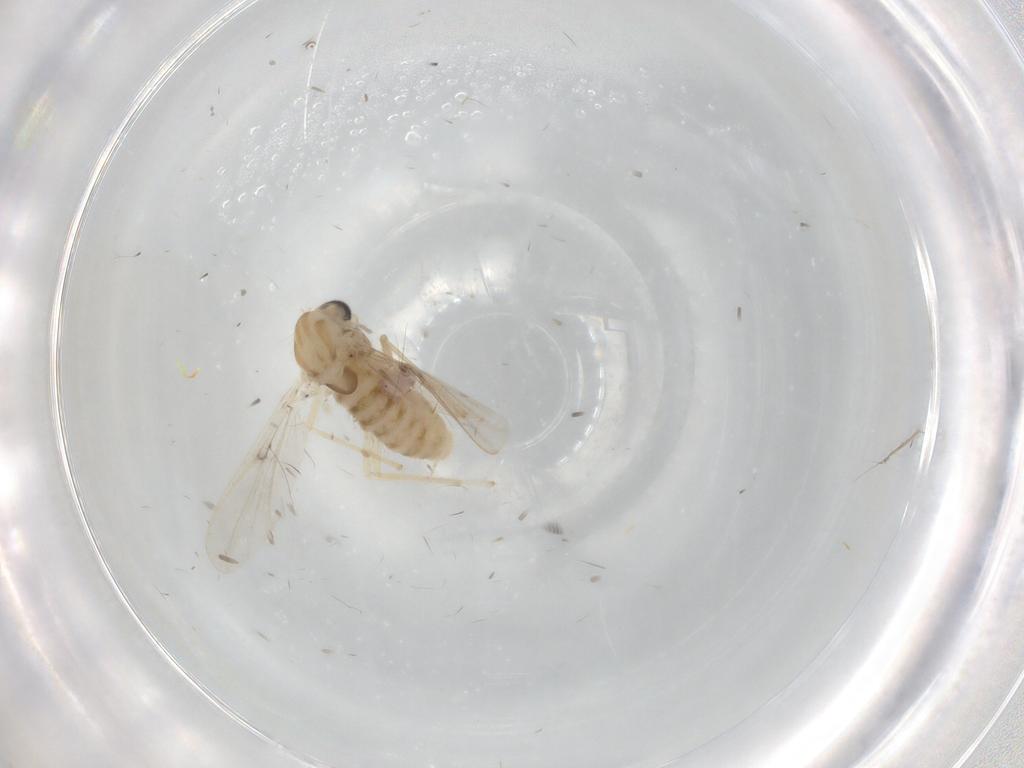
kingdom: Animalia
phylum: Arthropoda
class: Insecta
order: Diptera
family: Chironomidae
